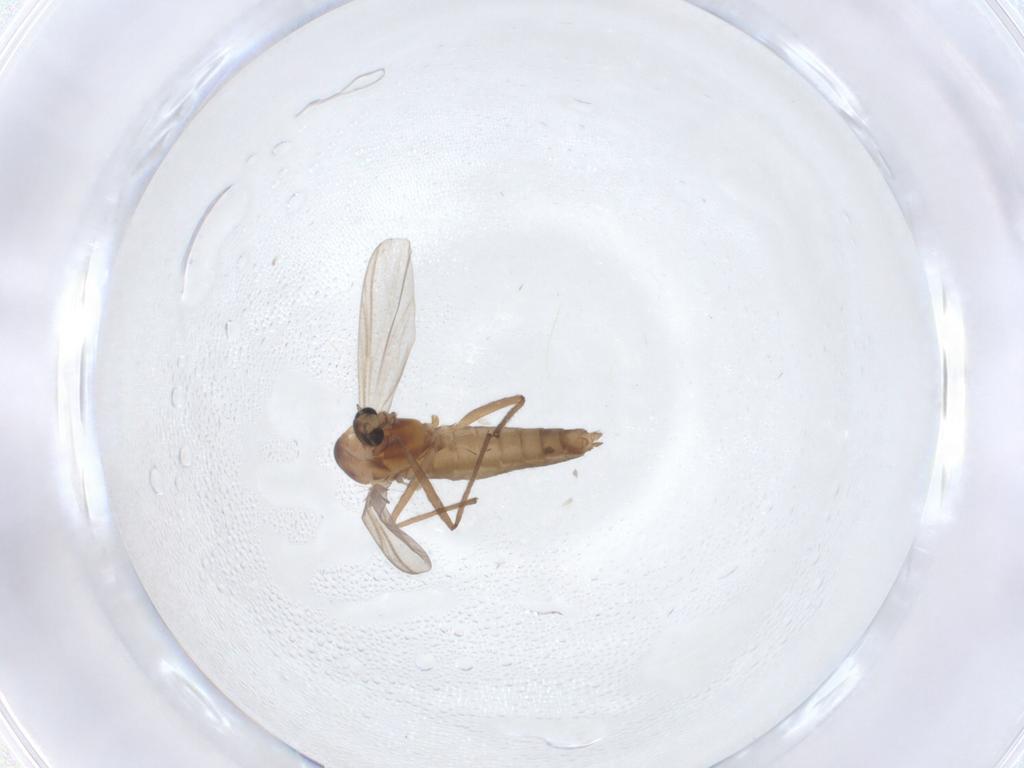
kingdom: Animalia
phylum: Arthropoda
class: Insecta
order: Diptera
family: Chironomidae
